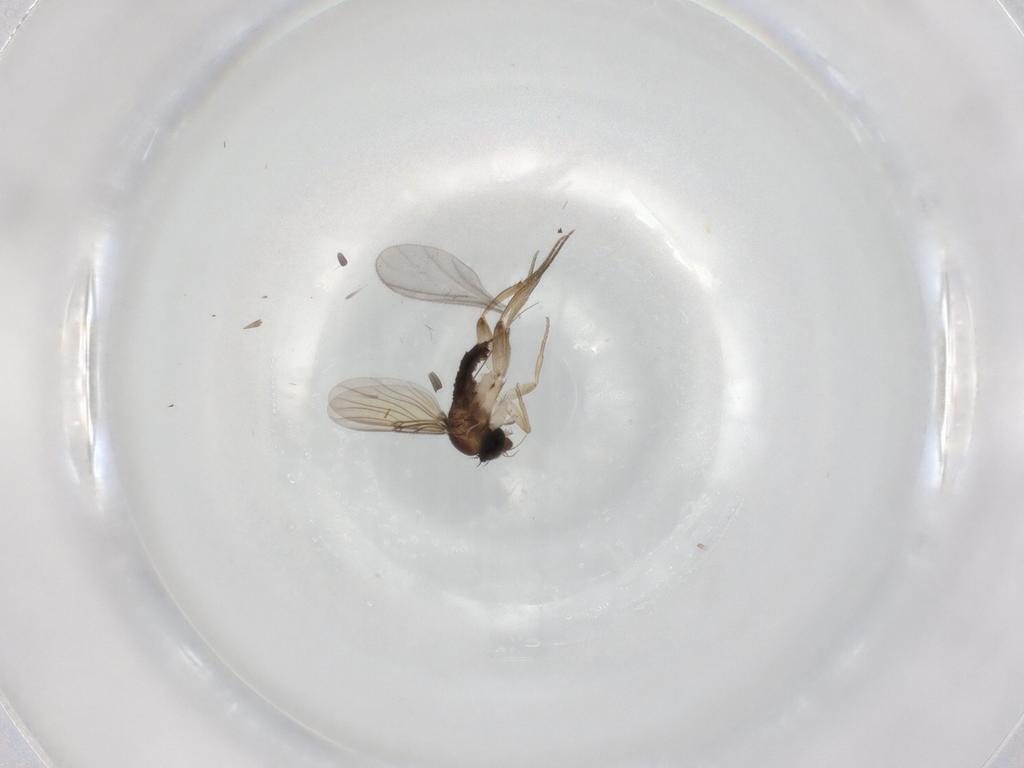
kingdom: Animalia
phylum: Arthropoda
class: Insecta
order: Diptera
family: Phoridae
